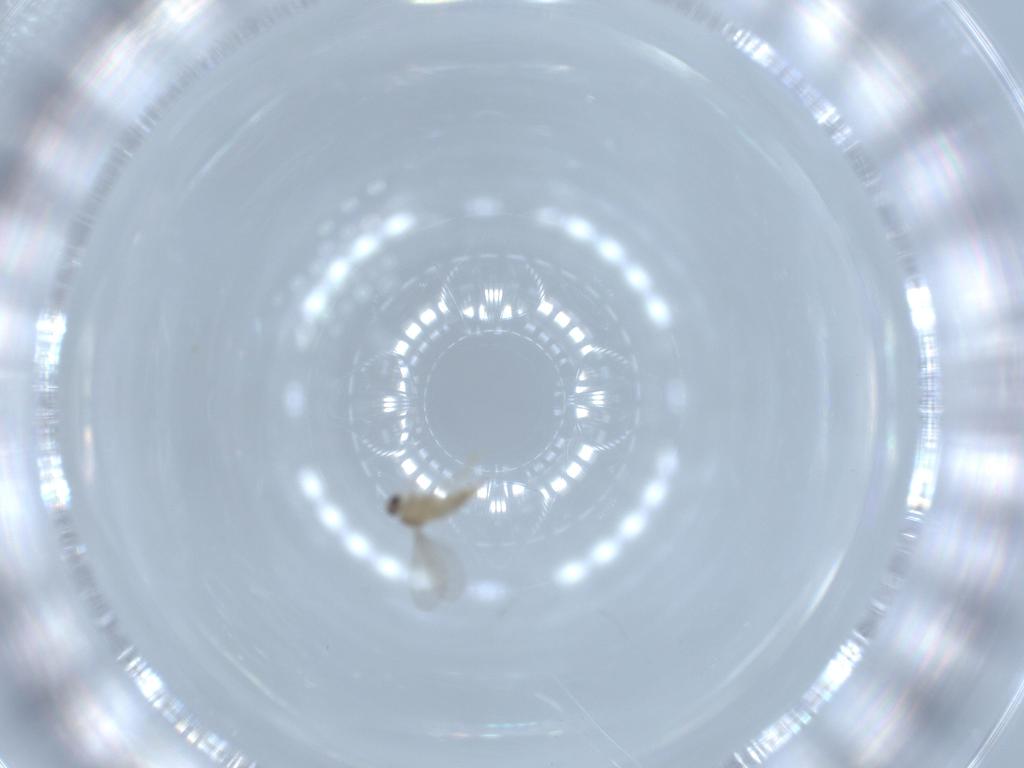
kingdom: Animalia
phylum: Arthropoda
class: Insecta
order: Diptera
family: Cecidomyiidae
